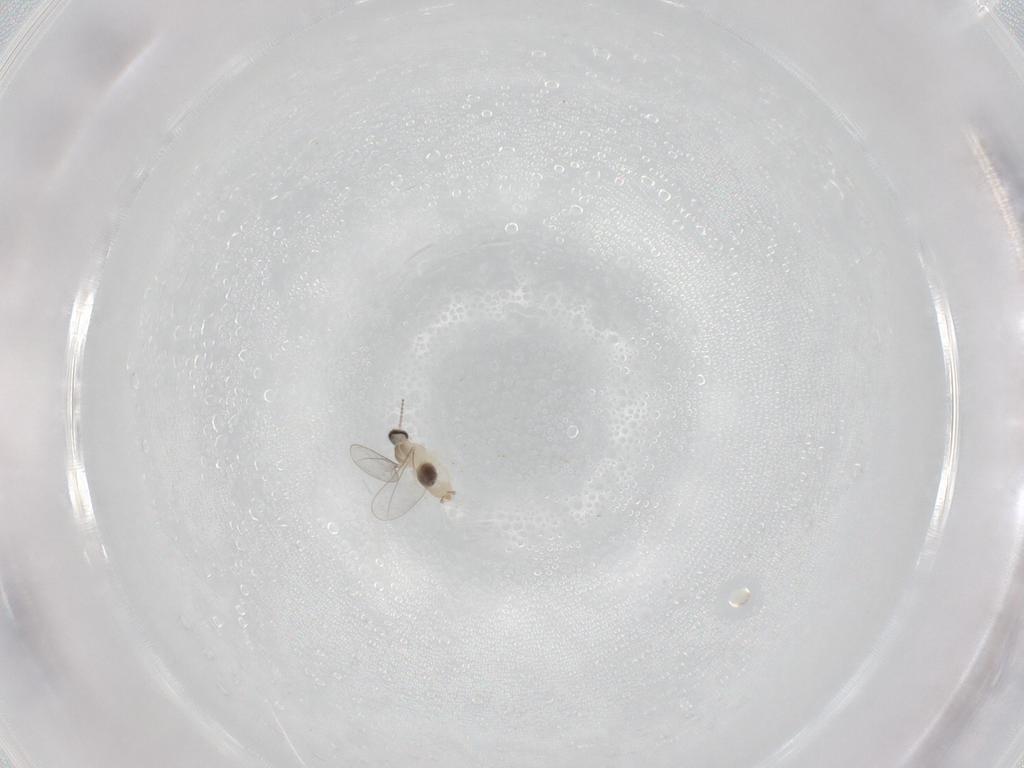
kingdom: Animalia
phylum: Arthropoda
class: Insecta
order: Diptera
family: Cecidomyiidae
